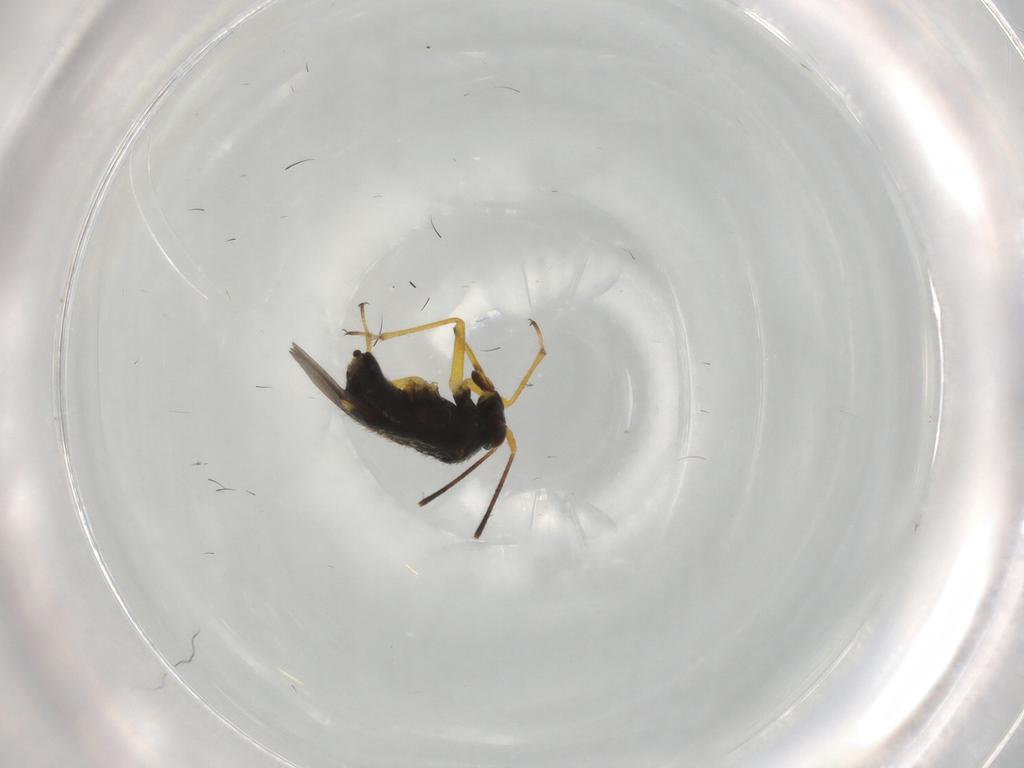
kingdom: Animalia
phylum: Arthropoda
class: Insecta
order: Hemiptera
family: Miridae
